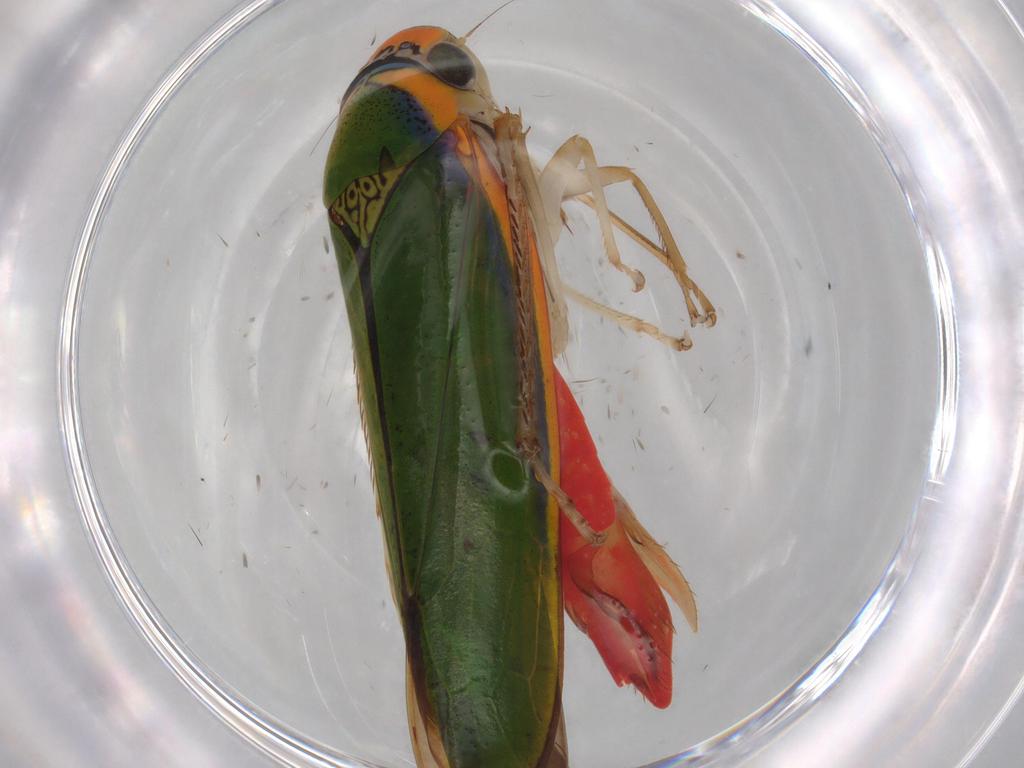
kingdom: Animalia
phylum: Arthropoda
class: Insecta
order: Hemiptera
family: Cicadellidae
